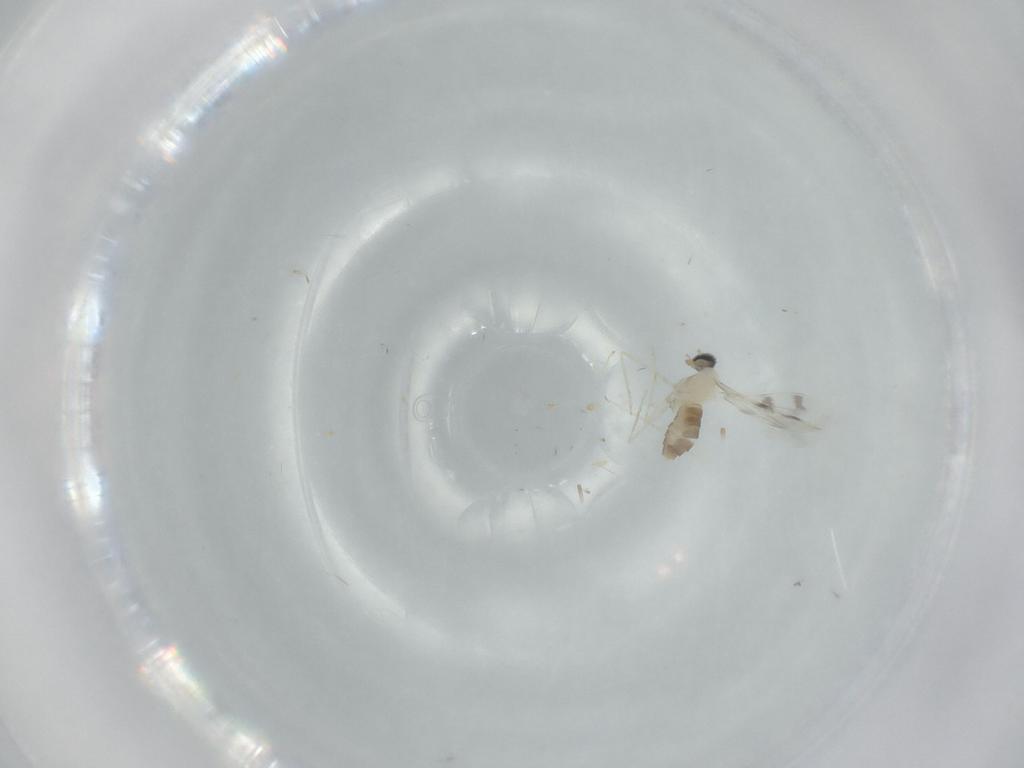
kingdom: Animalia
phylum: Arthropoda
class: Insecta
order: Diptera
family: Cecidomyiidae
